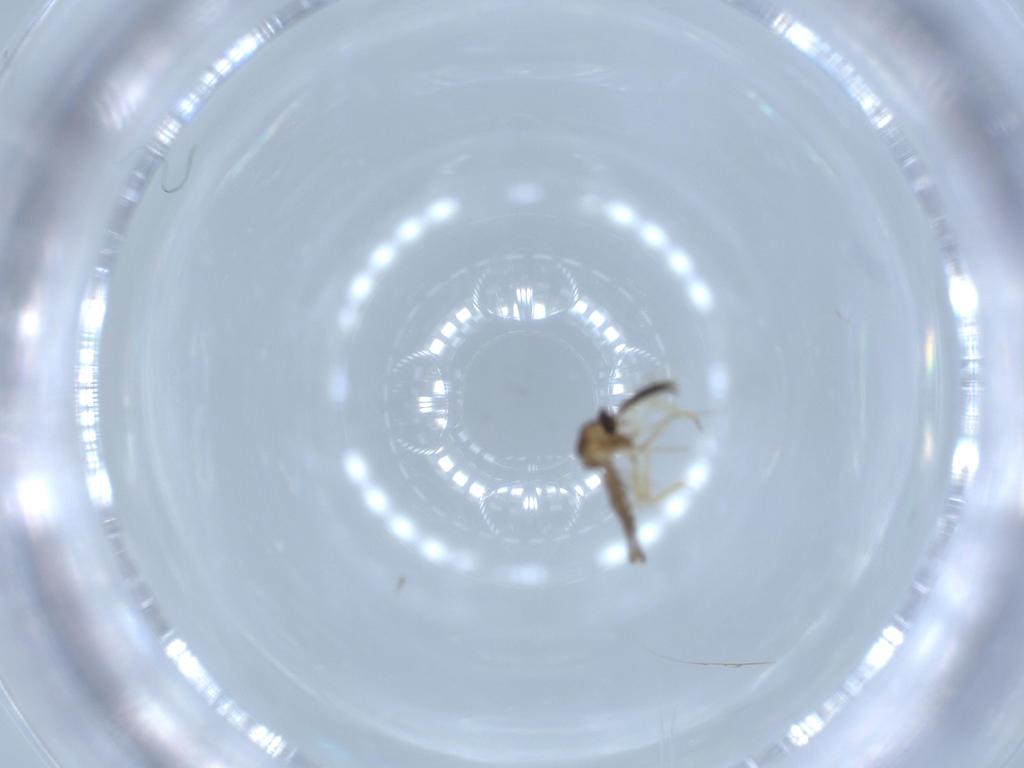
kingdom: Animalia
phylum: Arthropoda
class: Insecta
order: Diptera
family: Ceratopogonidae
